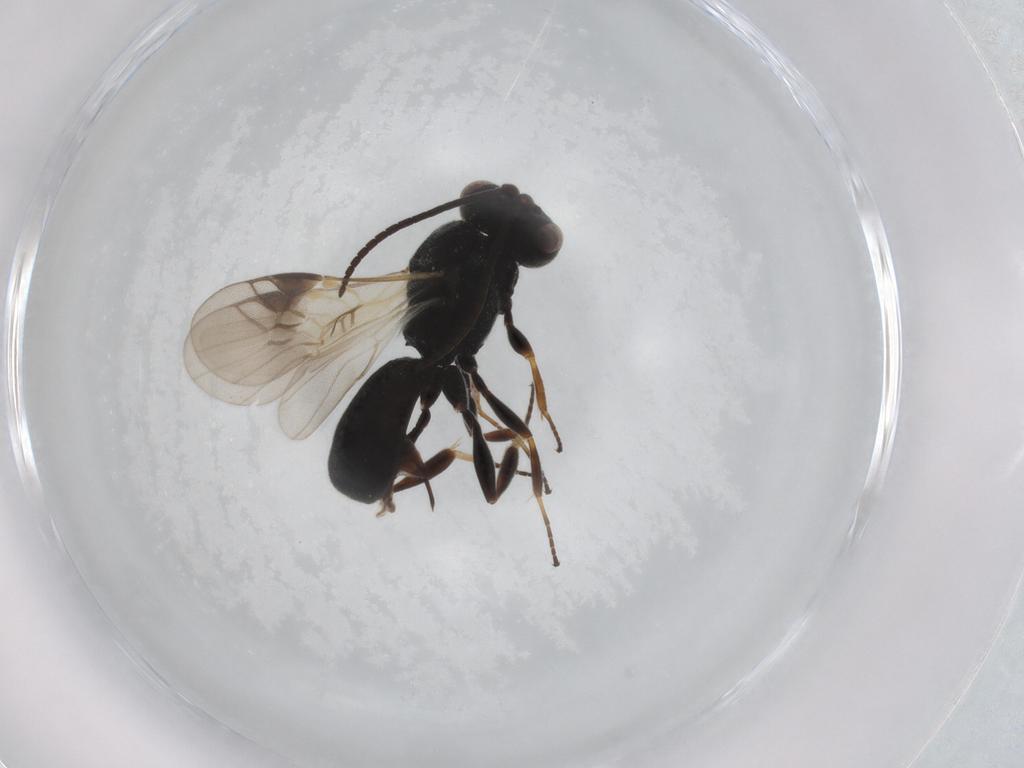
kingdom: Animalia
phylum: Arthropoda
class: Insecta
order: Hymenoptera
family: Braconidae
